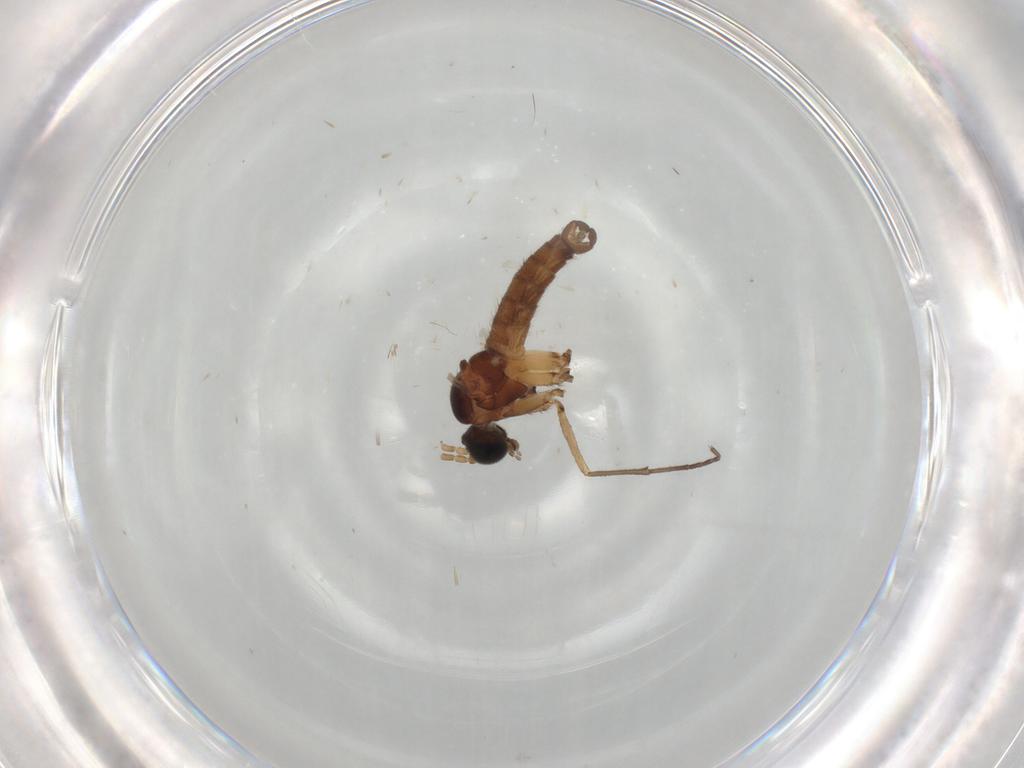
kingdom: Animalia
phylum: Arthropoda
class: Insecta
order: Diptera
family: Sciaridae
